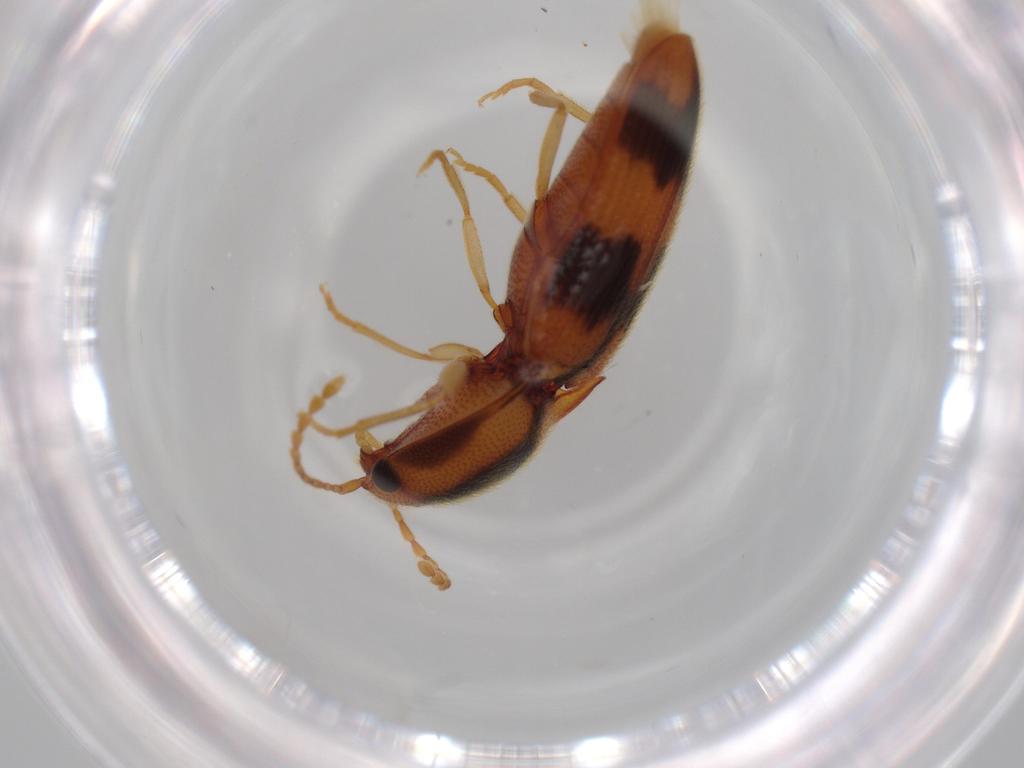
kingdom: Animalia
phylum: Arthropoda
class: Insecta
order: Coleoptera
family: Elateridae
